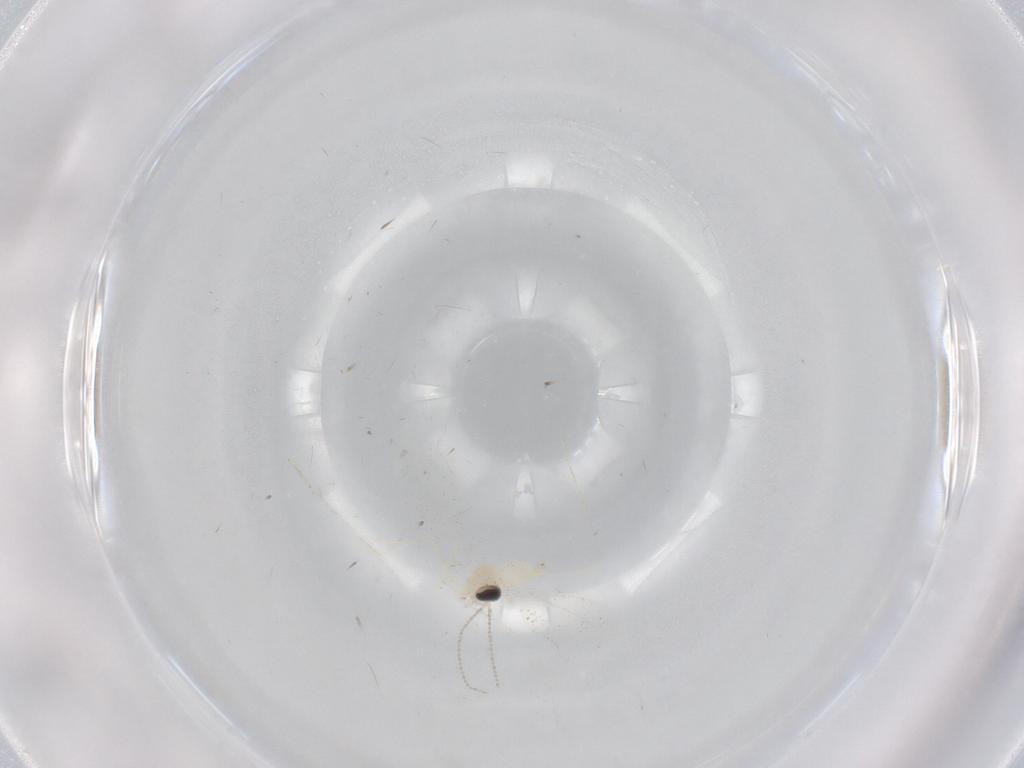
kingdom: Animalia
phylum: Arthropoda
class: Insecta
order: Diptera
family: Cecidomyiidae
